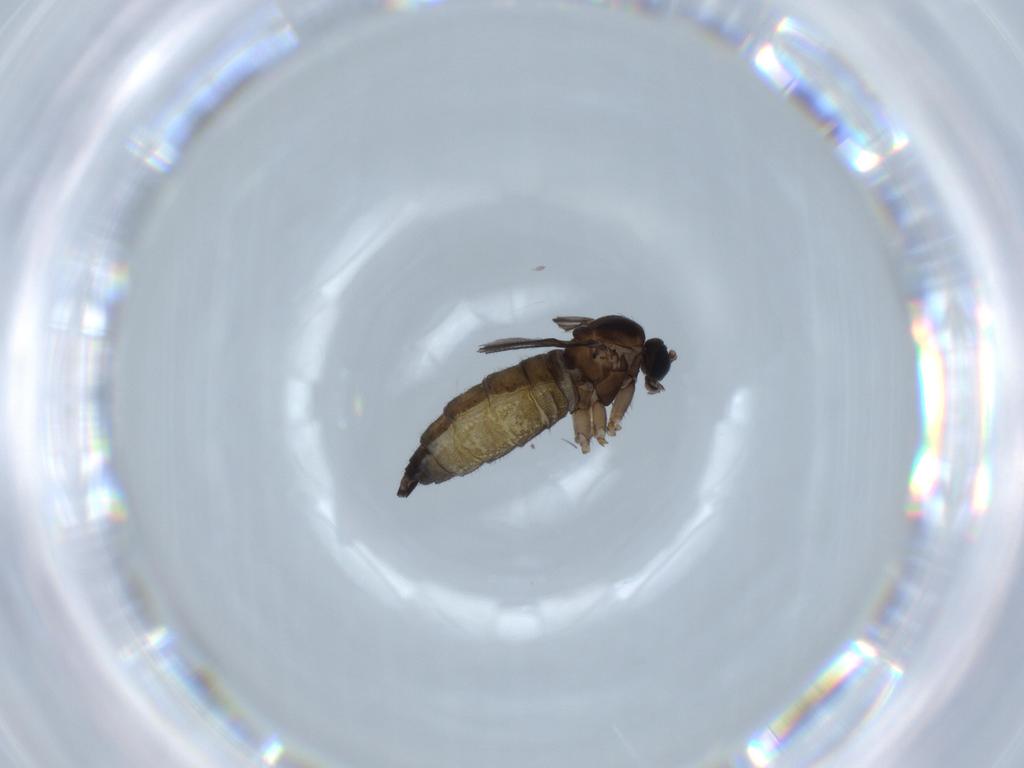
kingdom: Animalia
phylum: Arthropoda
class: Insecta
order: Diptera
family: Sciaridae
